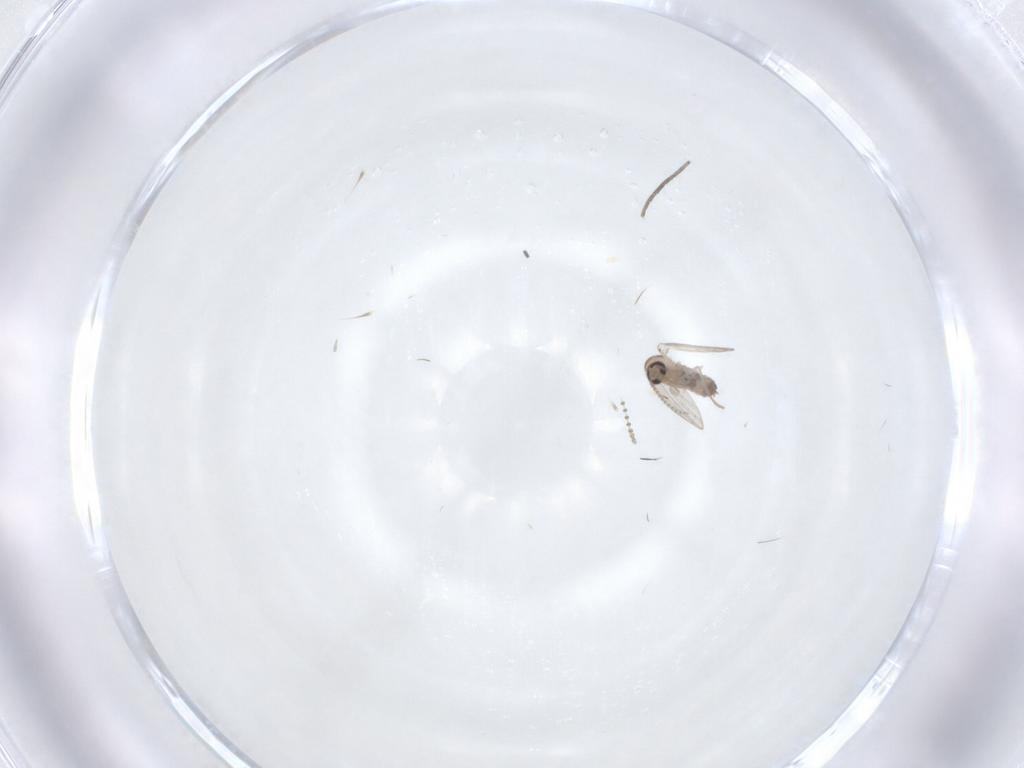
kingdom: Animalia
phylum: Arthropoda
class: Insecta
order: Diptera
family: Psychodidae
